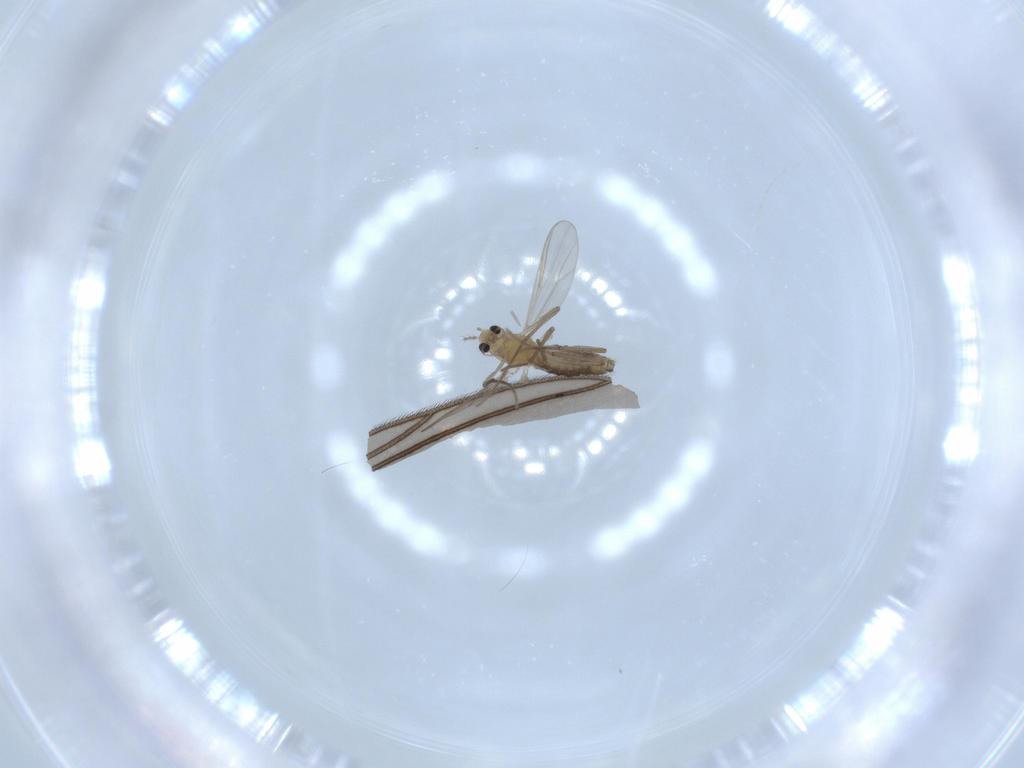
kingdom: Animalia
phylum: Arthropoda
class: Insecta
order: Diptera
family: Chironomidae
